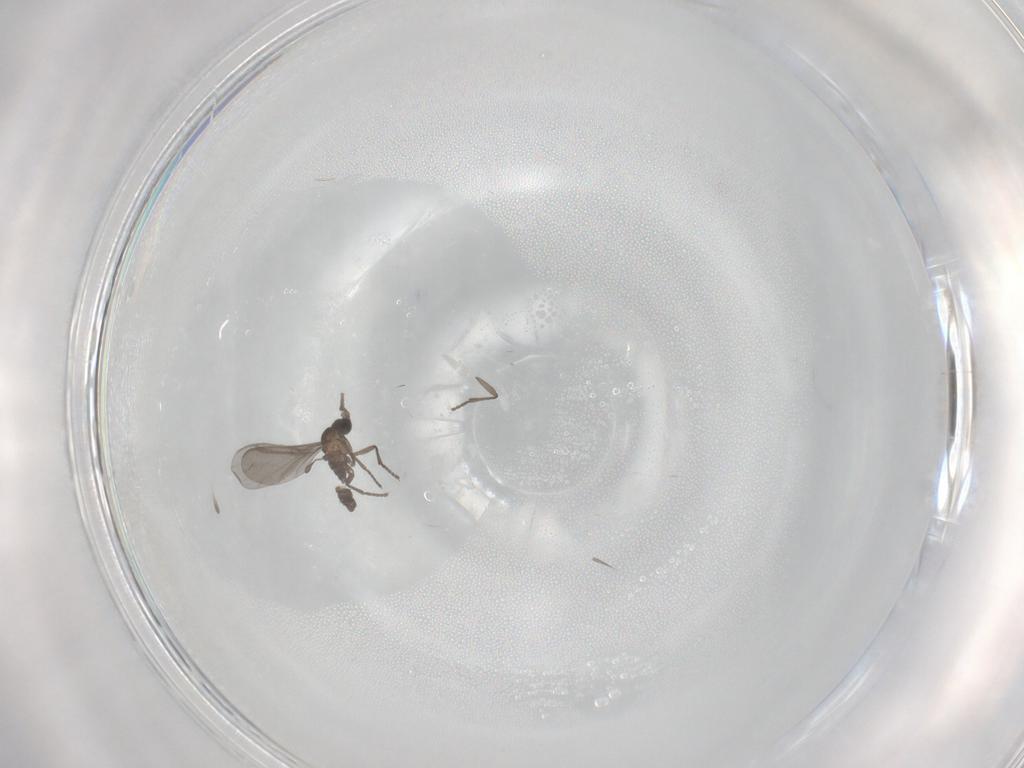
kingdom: Animalia
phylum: Arthropoda
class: Insecta
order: Diptera
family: Sciaridae
